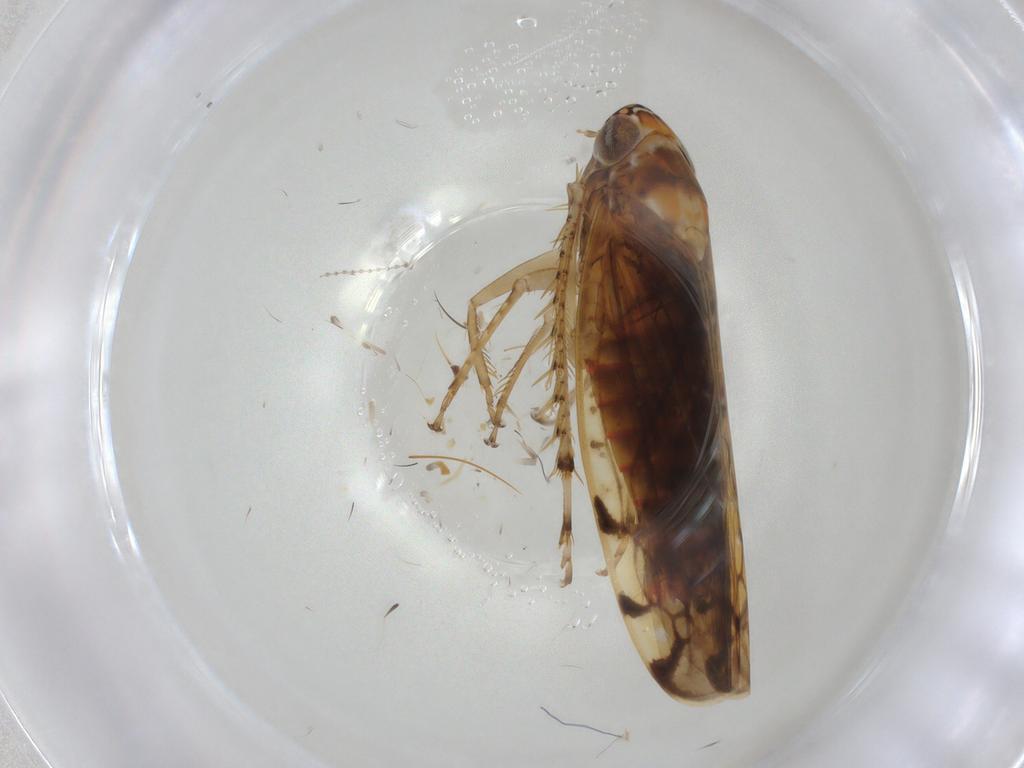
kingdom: Animalia
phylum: Arthropoda
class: Insecta
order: Hemiptera
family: Cicadellidae
